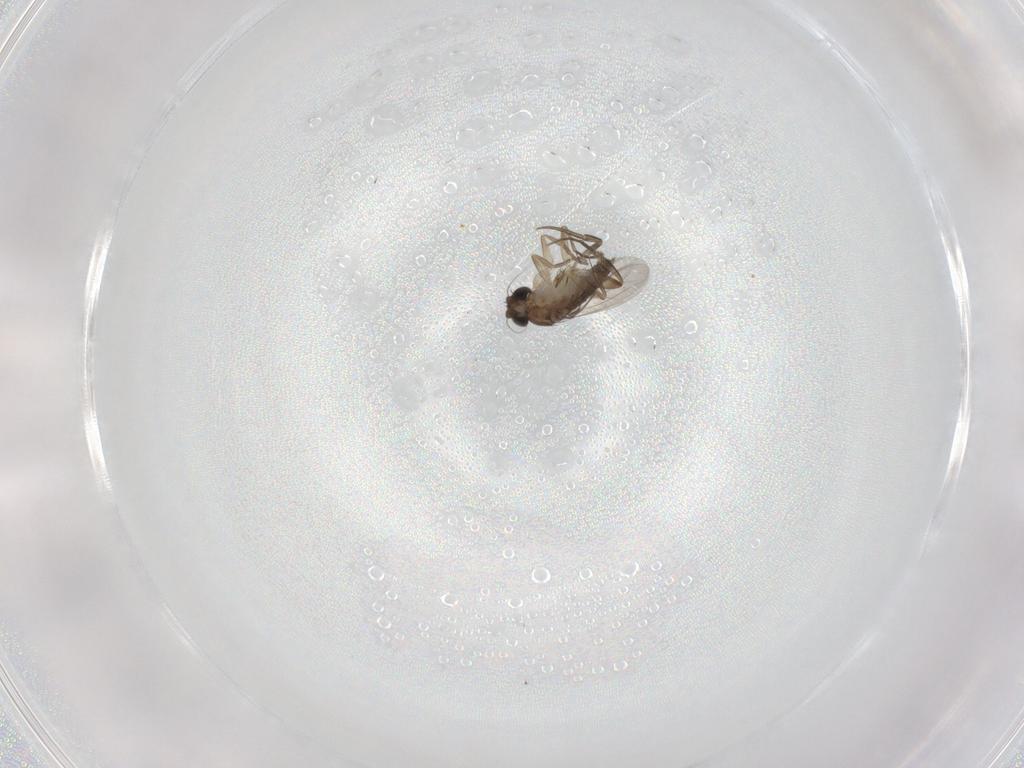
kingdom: Animalia
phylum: Arthropoda
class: Insecta
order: Diptera
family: Phoridae
